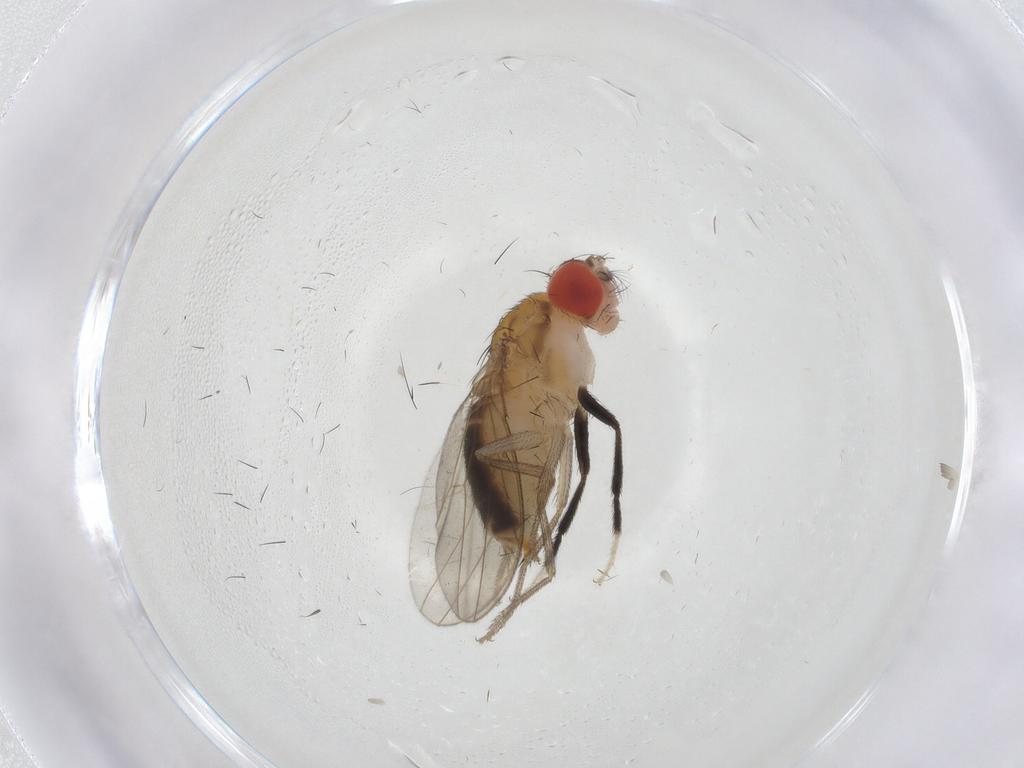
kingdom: Animalia
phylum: Arthropoda
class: Insecta
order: Diptera
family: Drosophilidae
